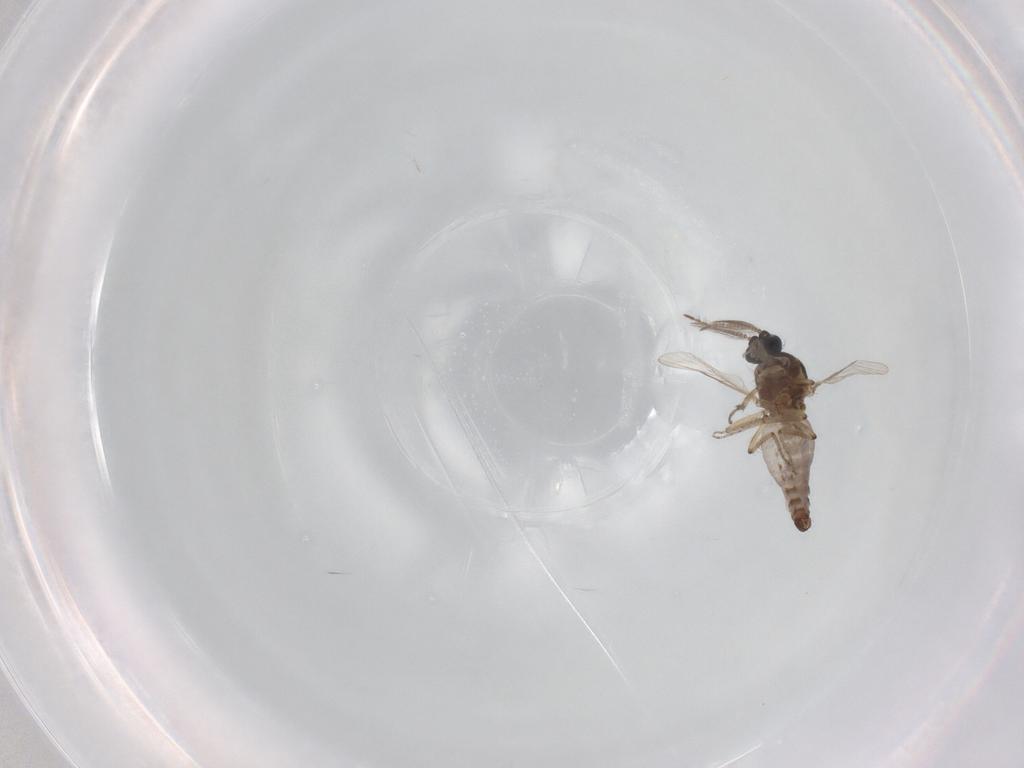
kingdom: Animalia
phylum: Arthropoda
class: Insecta
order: Diptera
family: Ceratopogonidae
